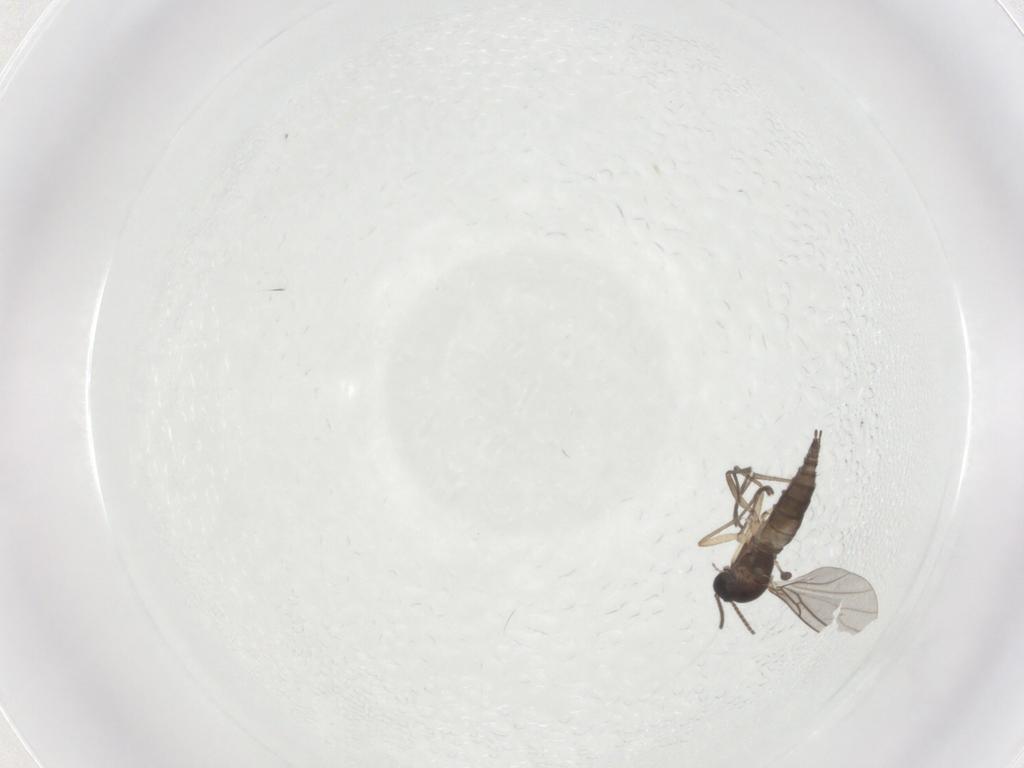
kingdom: Animalia
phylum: Arthropoda
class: Insecta
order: Diptera
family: Limoniidae
